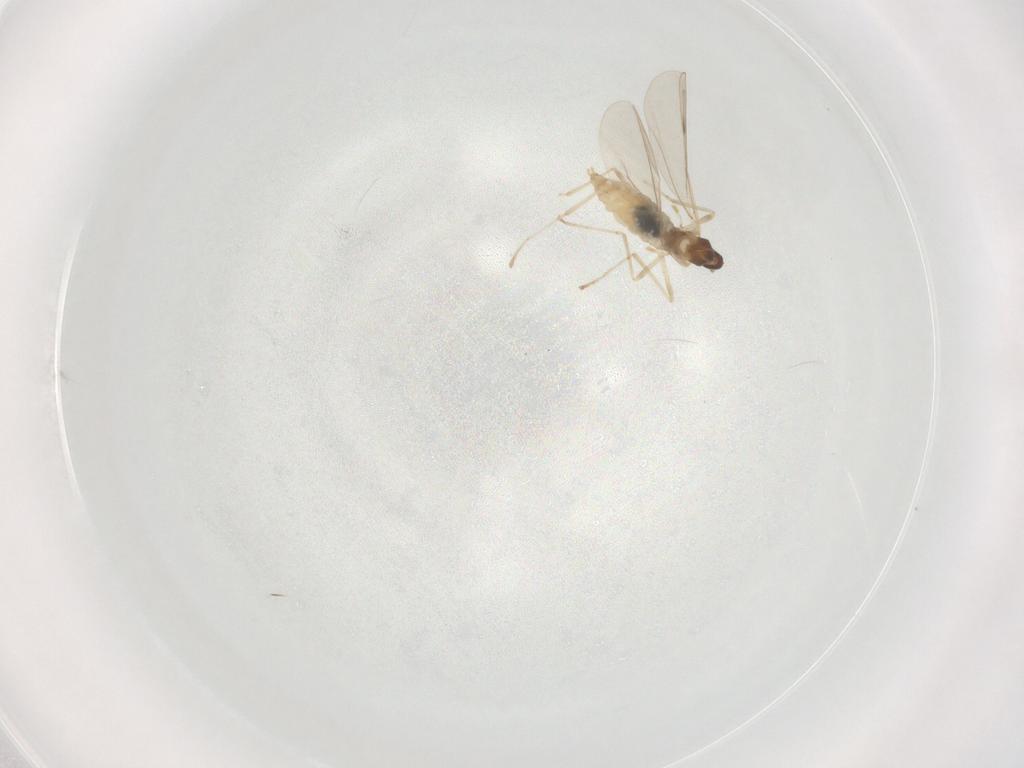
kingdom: Animalia
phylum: Arthropoda
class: Insecta
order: Diptera
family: Cecidomyiidae
